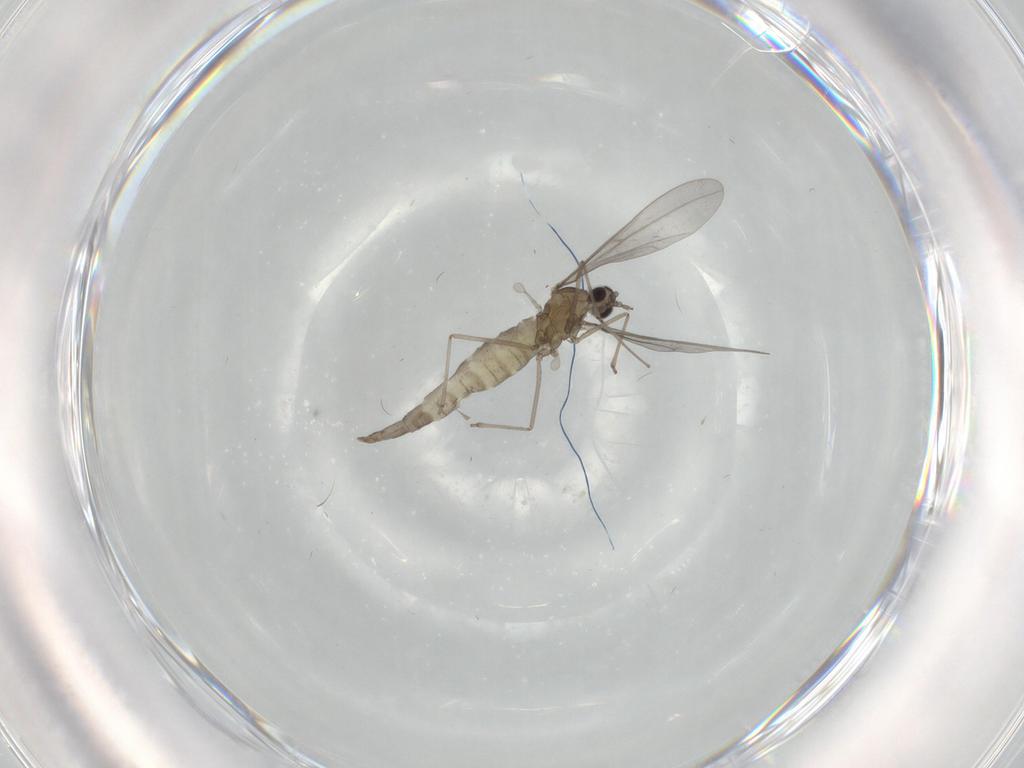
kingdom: Animalia
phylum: Arthropoda
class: Insecta
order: Diptera
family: Cecidomyiidae
